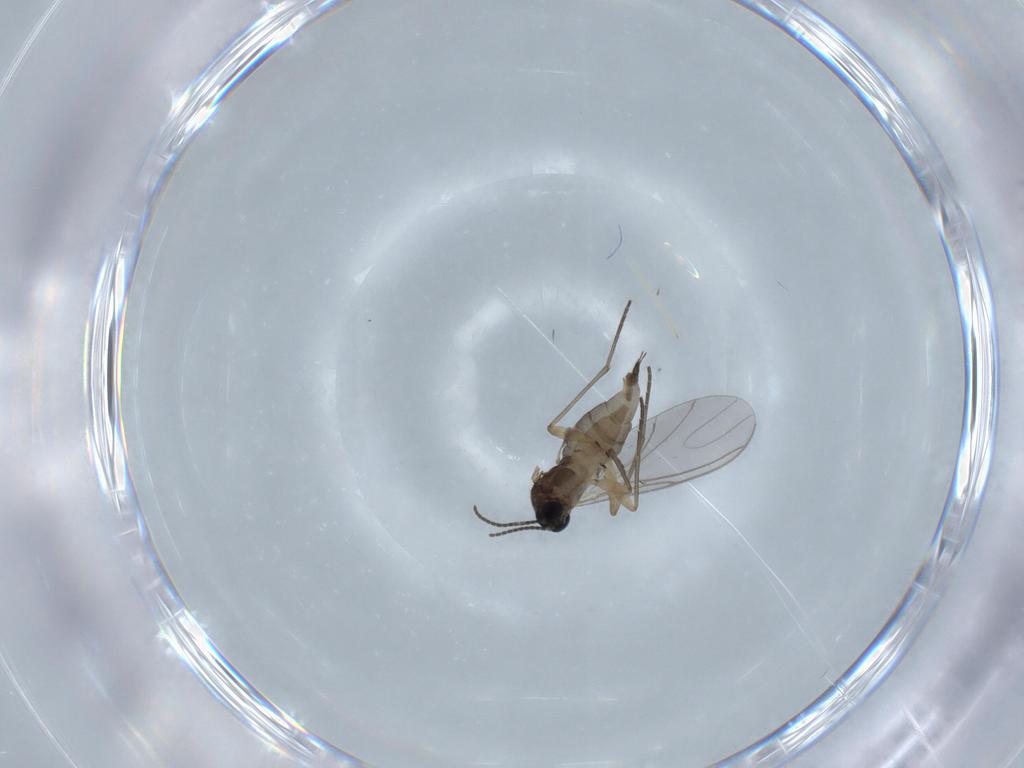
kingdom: Animalia
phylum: Arthropoda
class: Insecta
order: Diptera
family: Sciaridae
